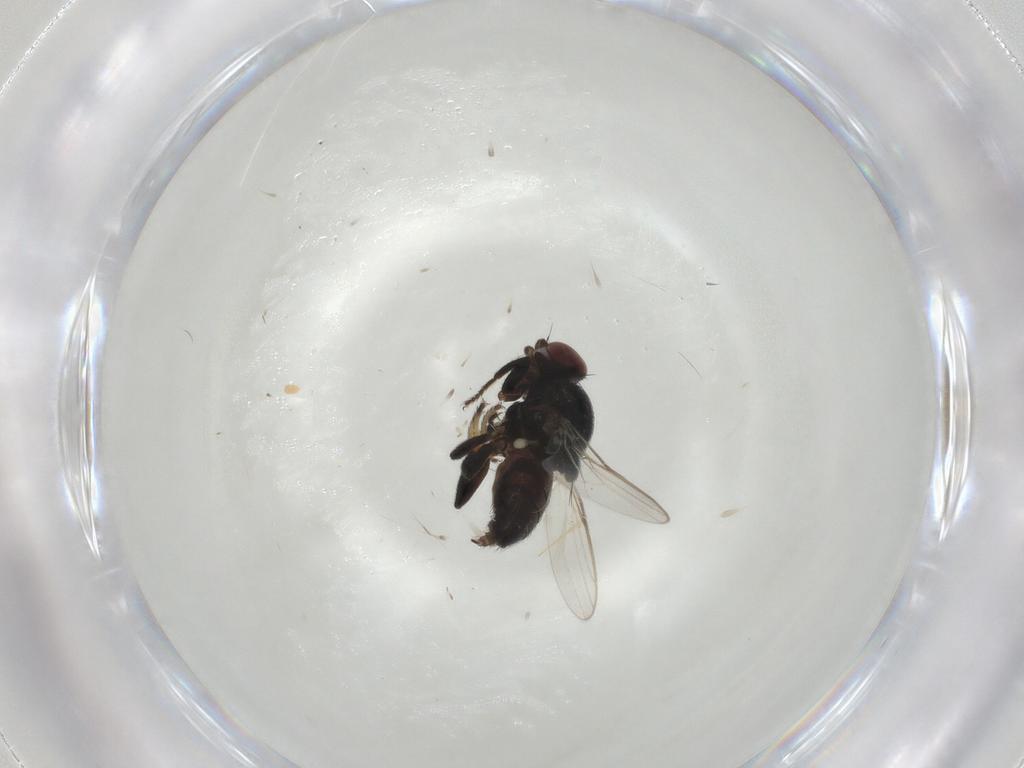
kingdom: Animalia
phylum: Arthropoda
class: Insecta
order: Diptera
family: Chloropidae
